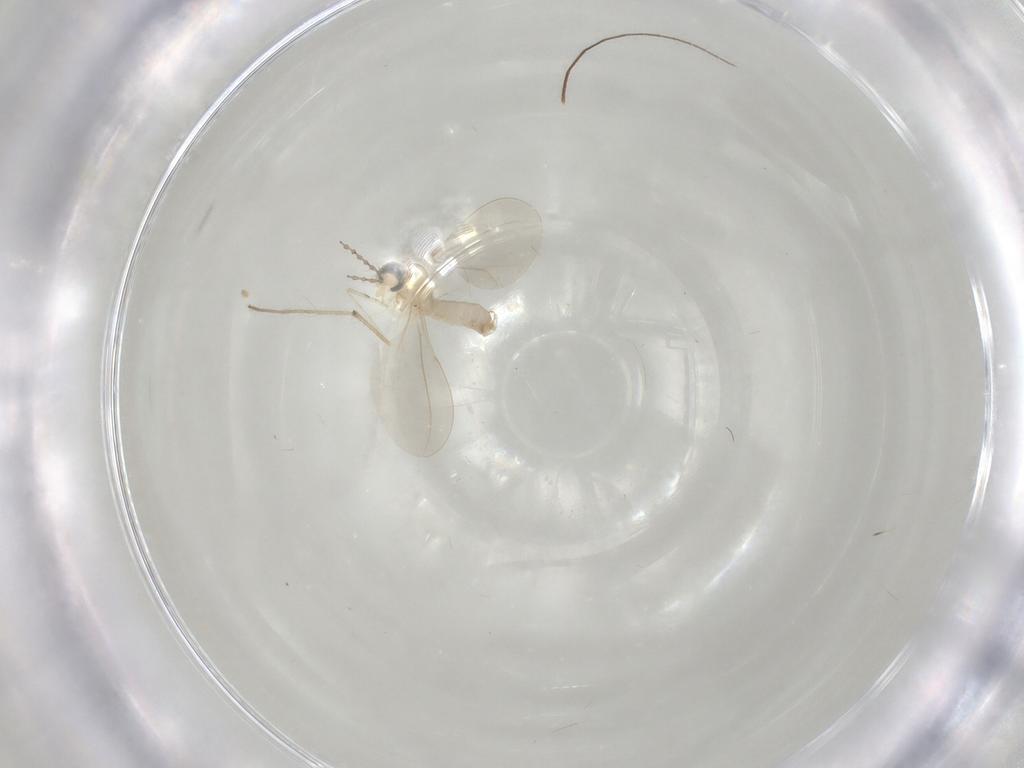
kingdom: Animalia
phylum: Arthropoda
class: Insecta
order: Diptera
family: Cecidomyiidae
